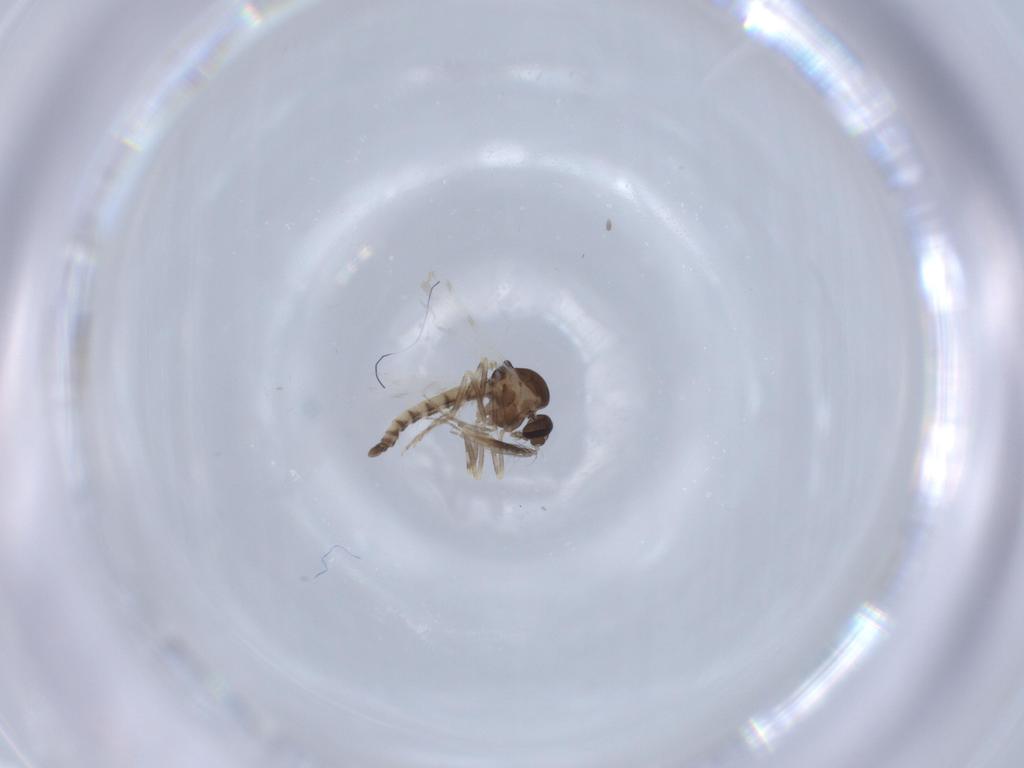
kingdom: Animalia
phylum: Arthropoda
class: Insecta
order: Diptera
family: Ceratopogonidae
